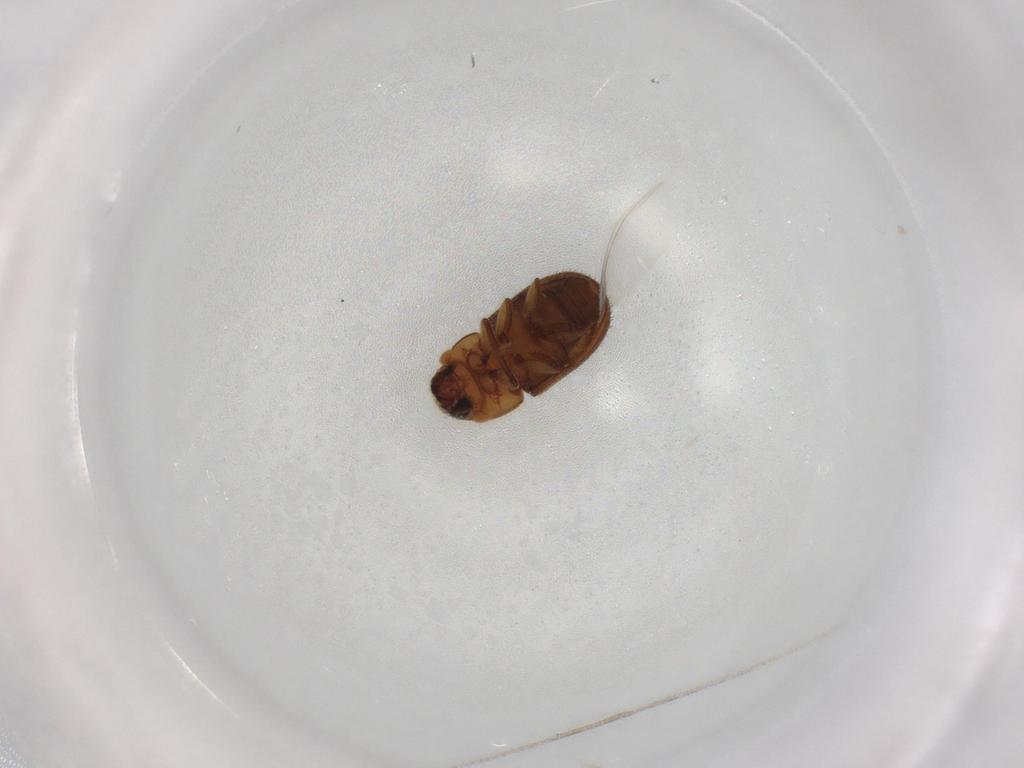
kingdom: Animalia
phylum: Arthropoda
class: Insecta
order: Coleoptera
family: Curculionidae
